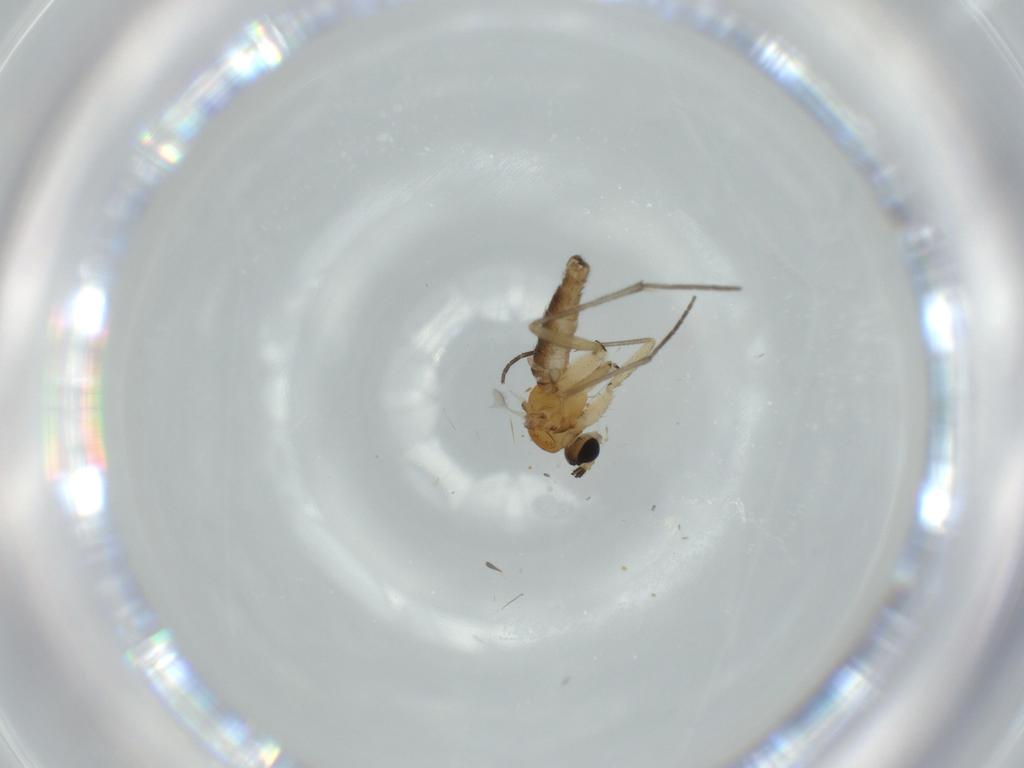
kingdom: Animalia
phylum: Arthropoda
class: Insecta
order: Diptera
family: Sciaridae
